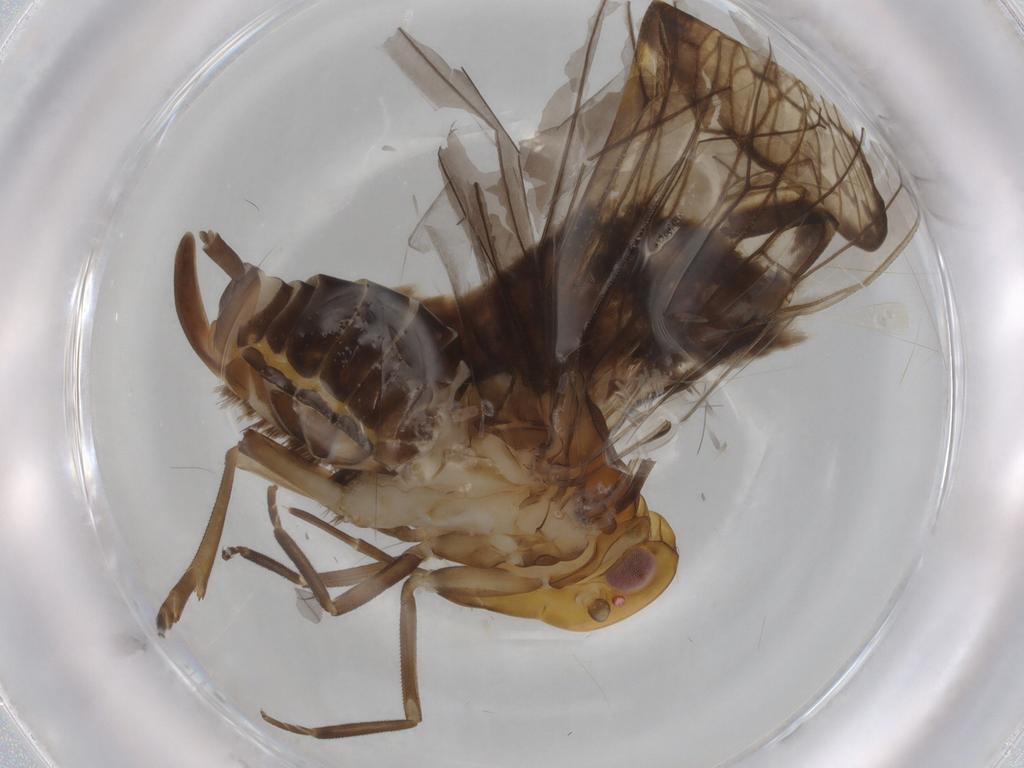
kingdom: Animalia
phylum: Arthropoda
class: Insecta
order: Hemiptera
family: Cixiidae
